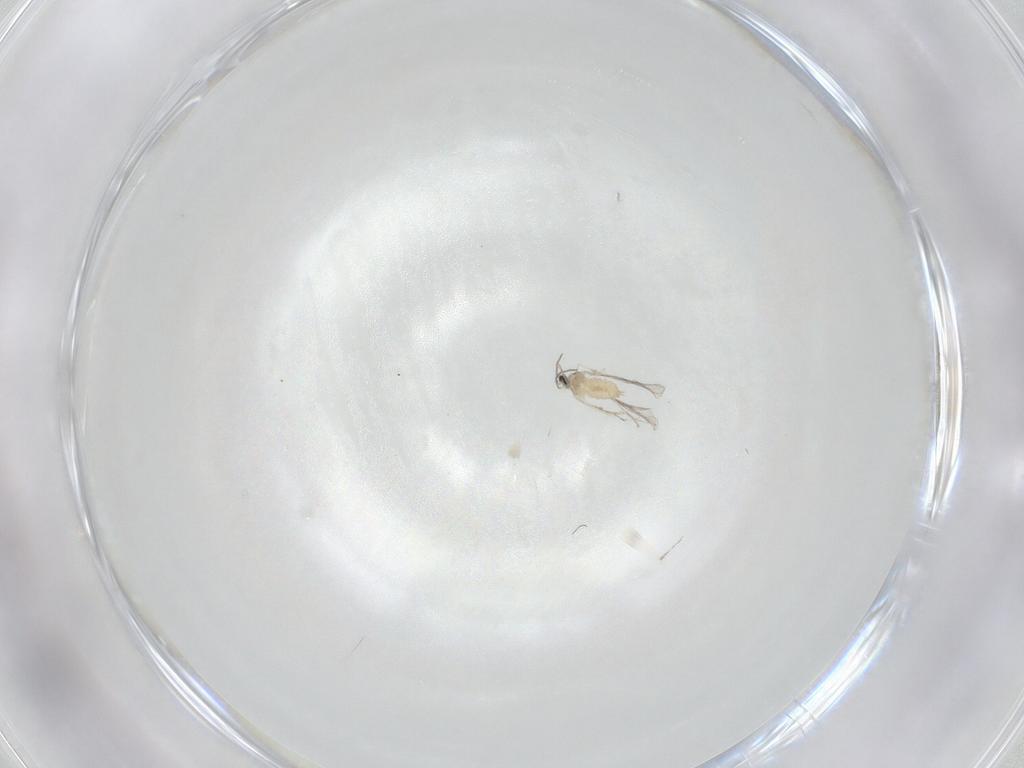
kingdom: Animalia
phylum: Arthropoda
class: Insecta
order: Diptera
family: Cecidomyiidae
